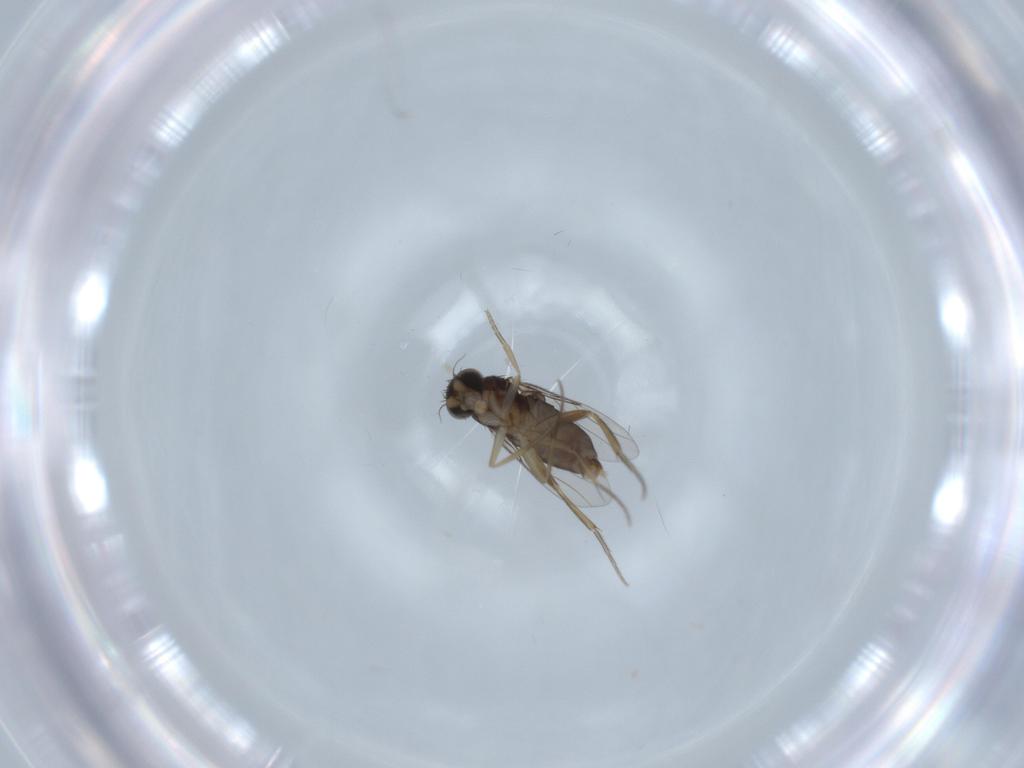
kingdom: Animalia
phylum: Arthropoda
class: Insecta
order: Diptera
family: Phoridae
